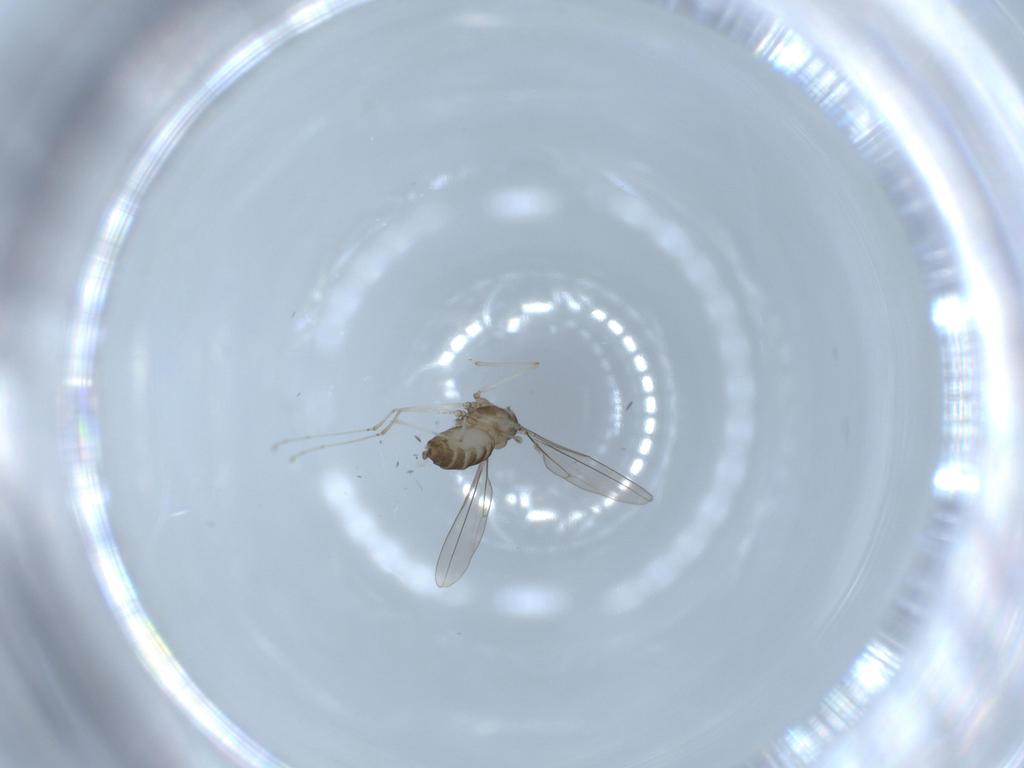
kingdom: Animalia
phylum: Arthropoda
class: Insecta
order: Diptera
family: Cecidomyiidae
